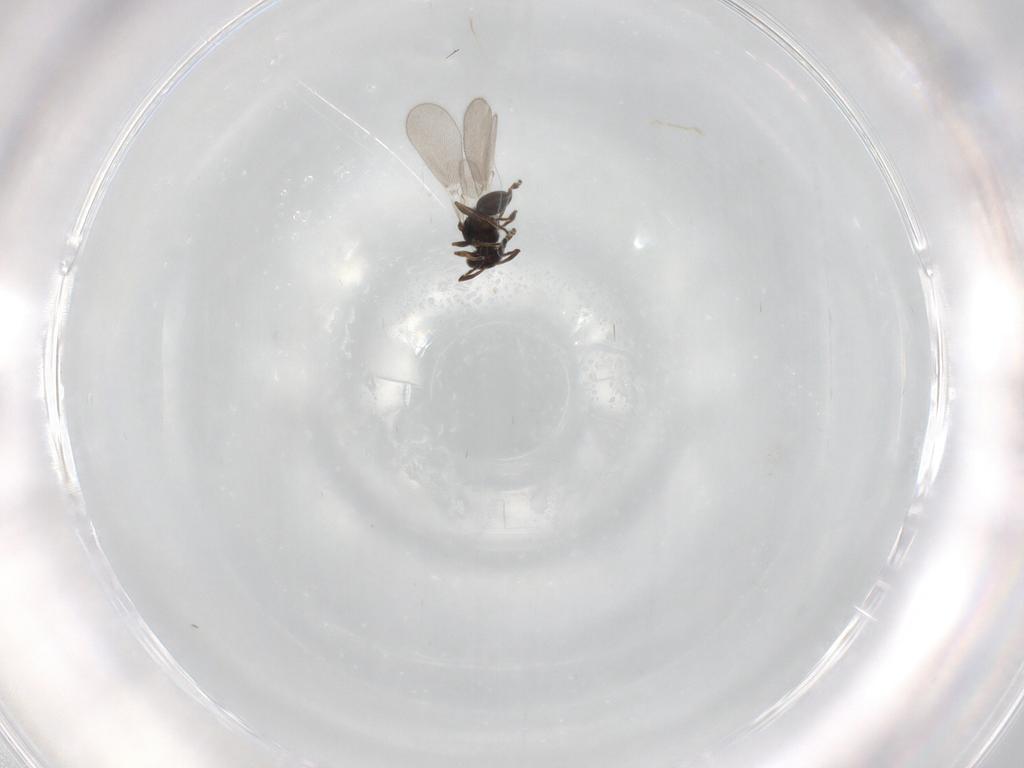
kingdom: Animalia
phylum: Arthropoda
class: Insecta
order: Hymenoptera
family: Platygastridae
